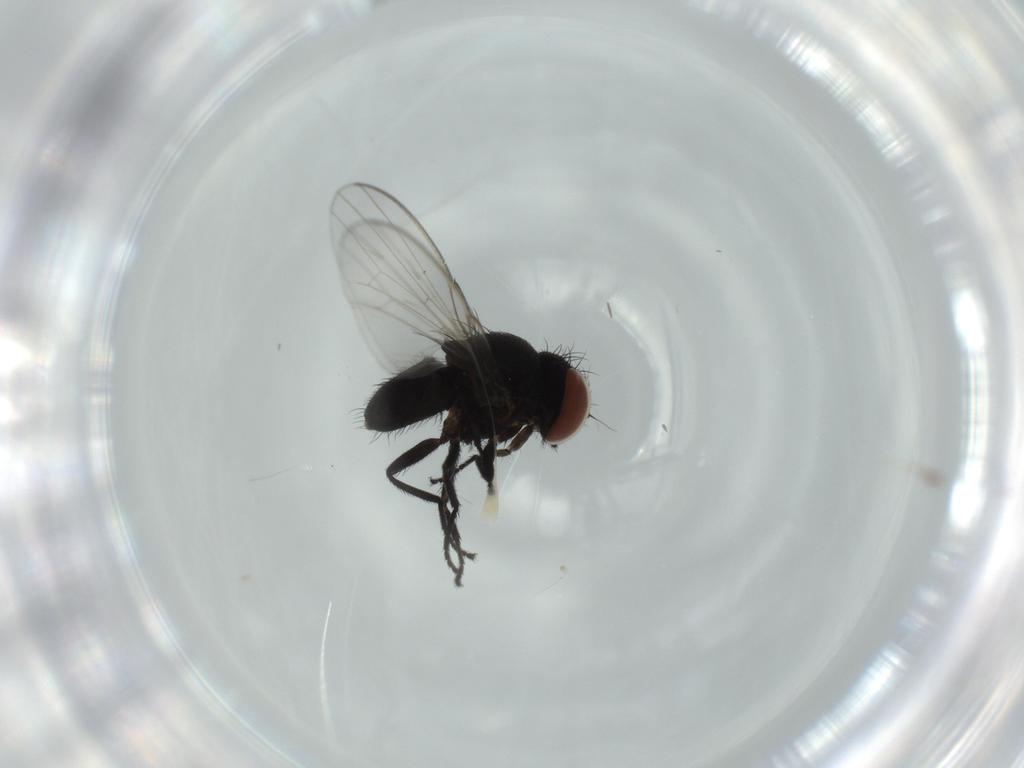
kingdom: Animalia
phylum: Arthropoda
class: Insecta
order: Diptera
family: Milichiidae
